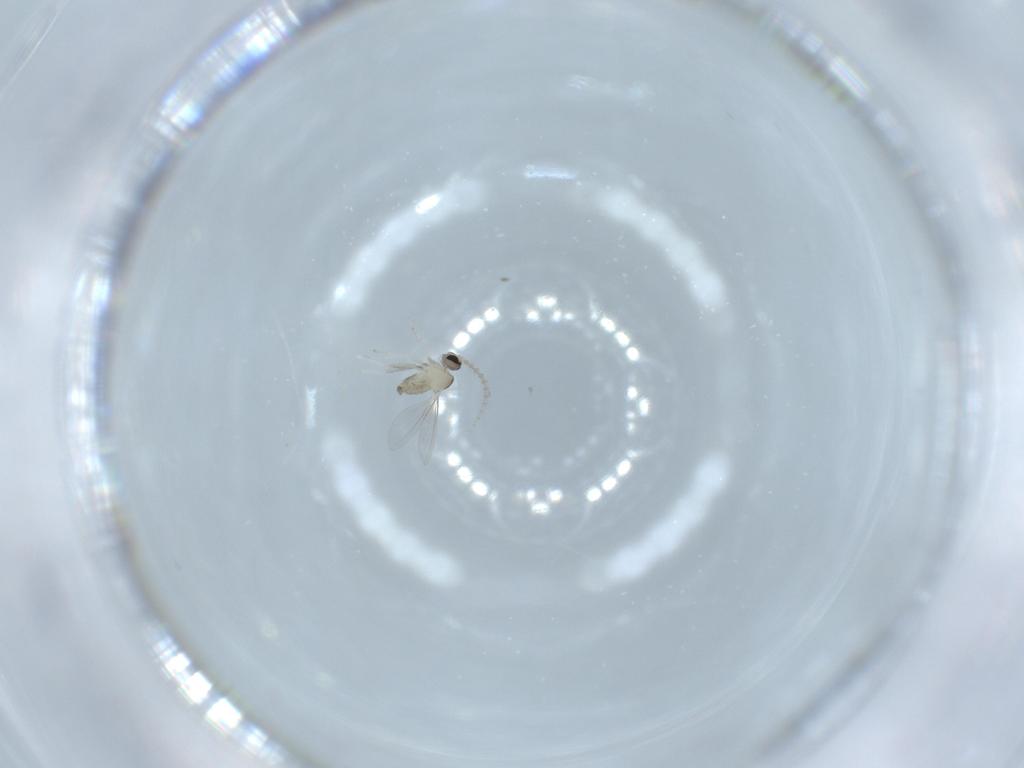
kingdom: Animalia
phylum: Arthropoda
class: Insecta
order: Diptera
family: Cecidomyiidae
